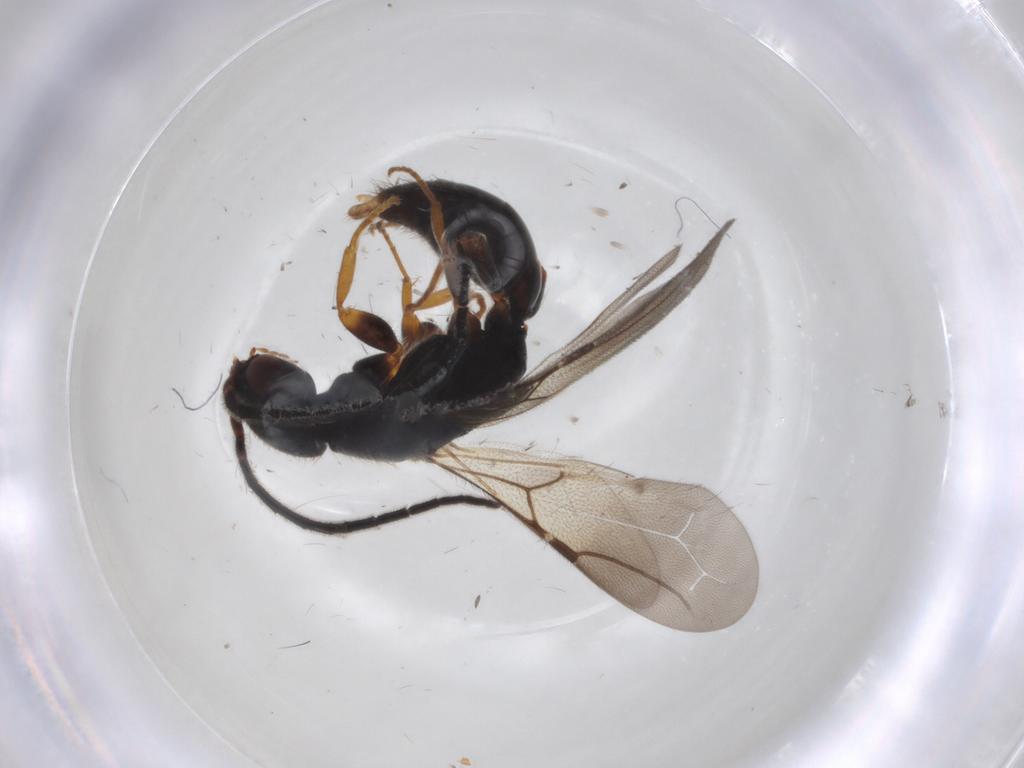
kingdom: Animalia
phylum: Arthropoda
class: Insecta
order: Hymenoptera
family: Bethylidae
